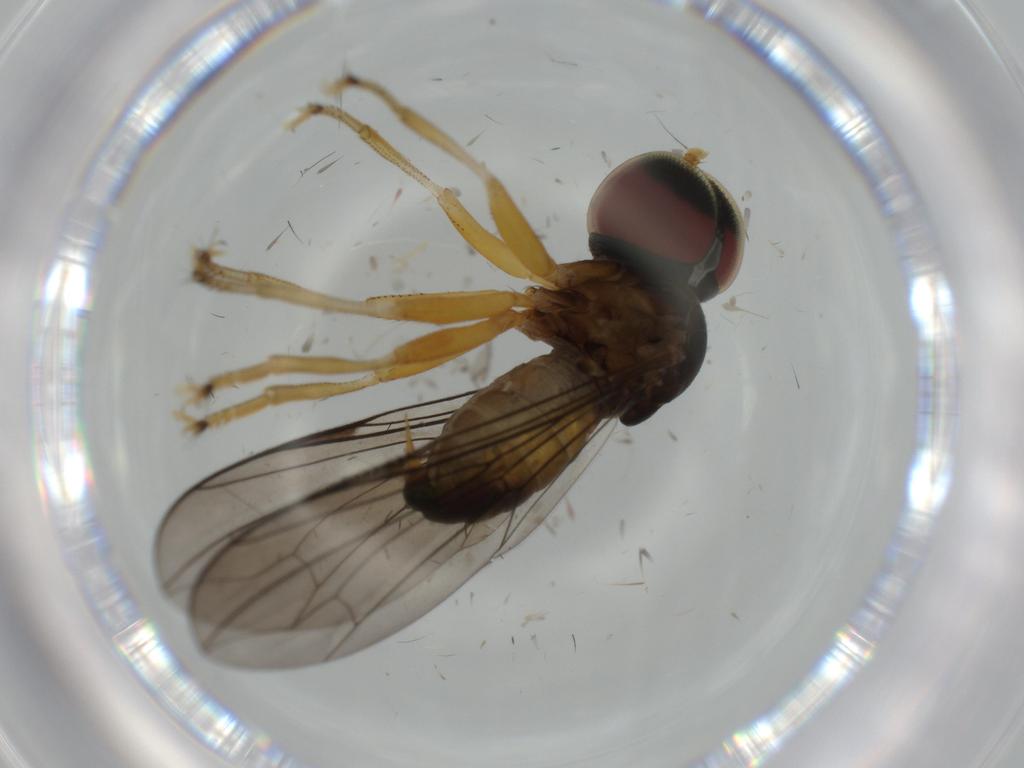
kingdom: Animalia
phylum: Arthropoda
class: Insecta
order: Diptera
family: Pipunculidae
